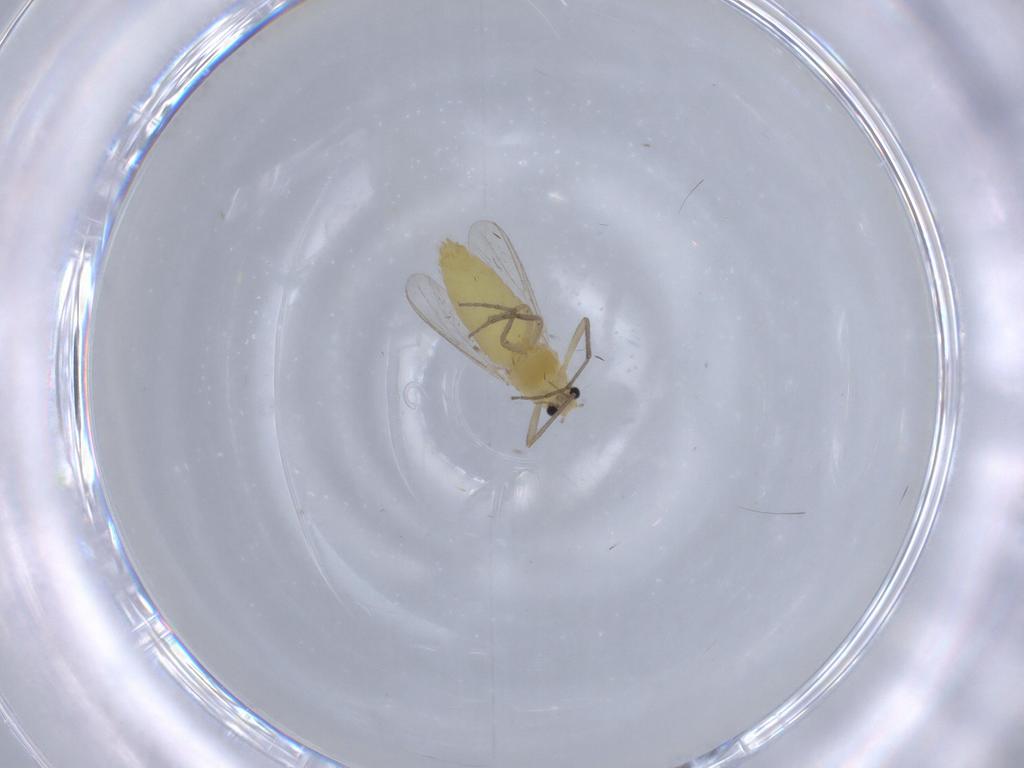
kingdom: Animalia
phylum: Arthropoda
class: Insecta
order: Diptera
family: Chironomidae
